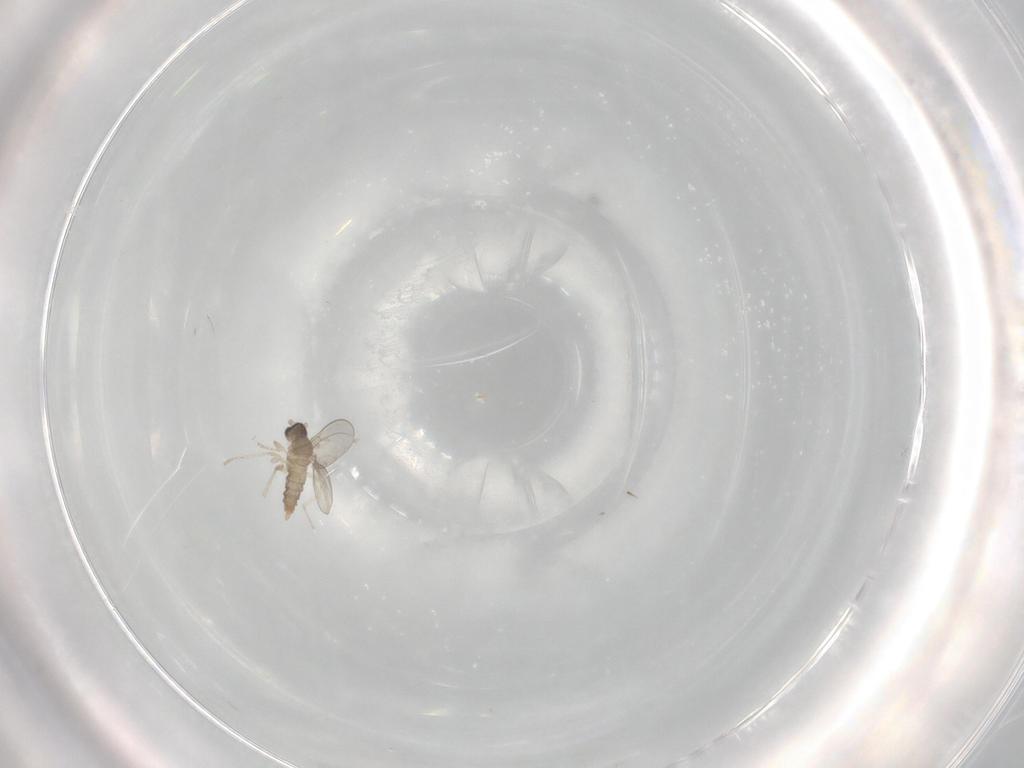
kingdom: Animalia
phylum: Arthropoda
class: Insecta
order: Diptera
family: Cecidomyiidae
